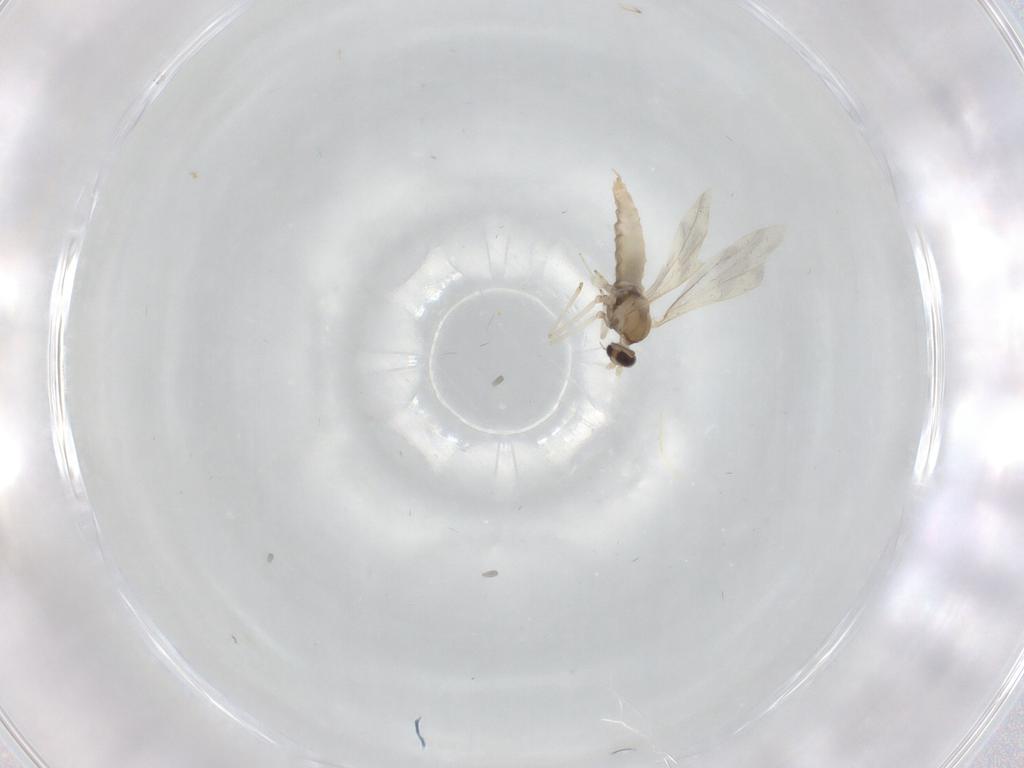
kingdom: Animalia
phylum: Arthropoda
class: Insecta
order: Diptera
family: Cecidomyiidae
